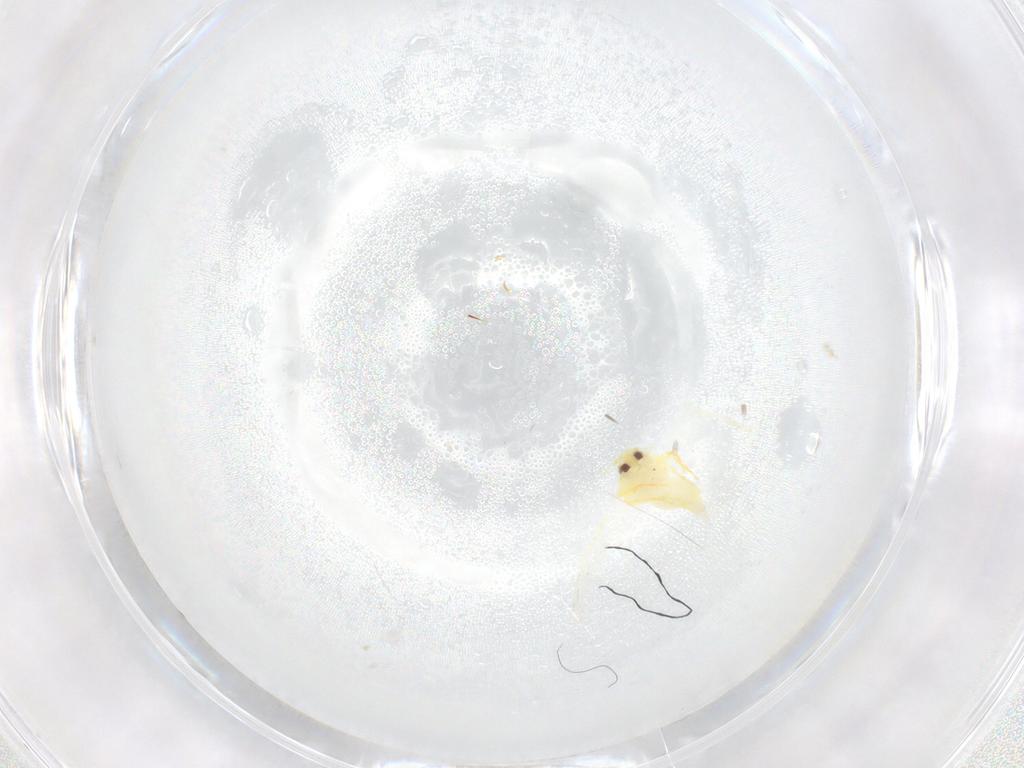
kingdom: Animalia
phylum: Arthropoda
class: Insecta
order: Hemiptera
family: Aleyrodidae
